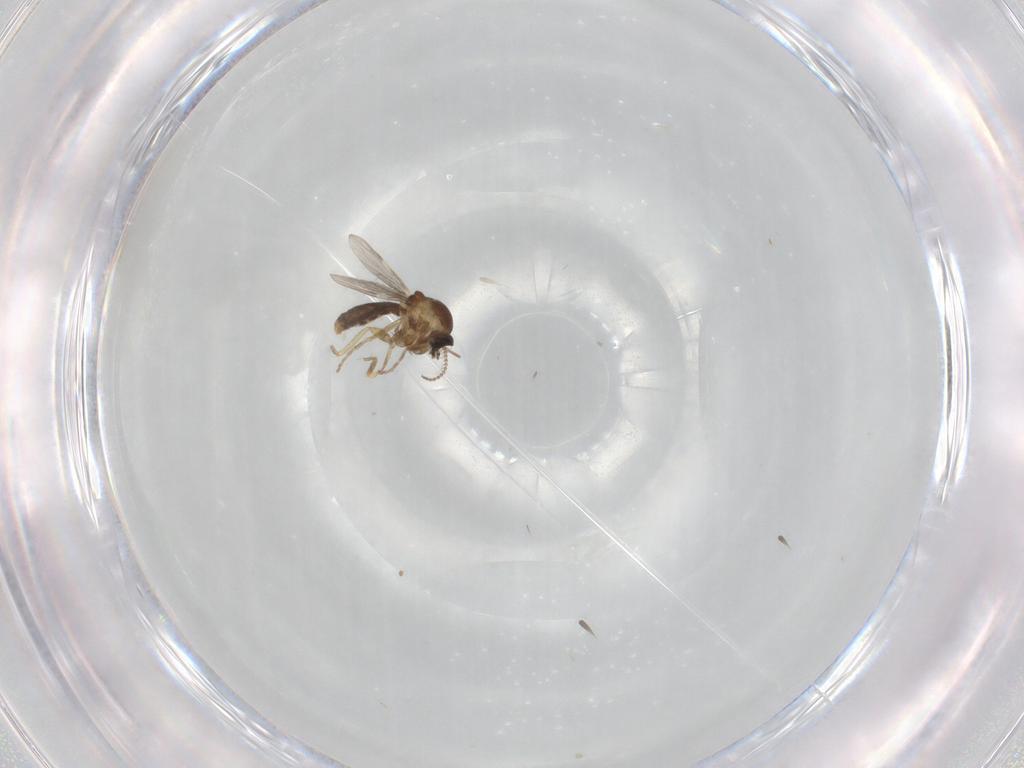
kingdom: Animalia
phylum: Arthropoda
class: Insecta
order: Diptera
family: Ceratopogonidae
